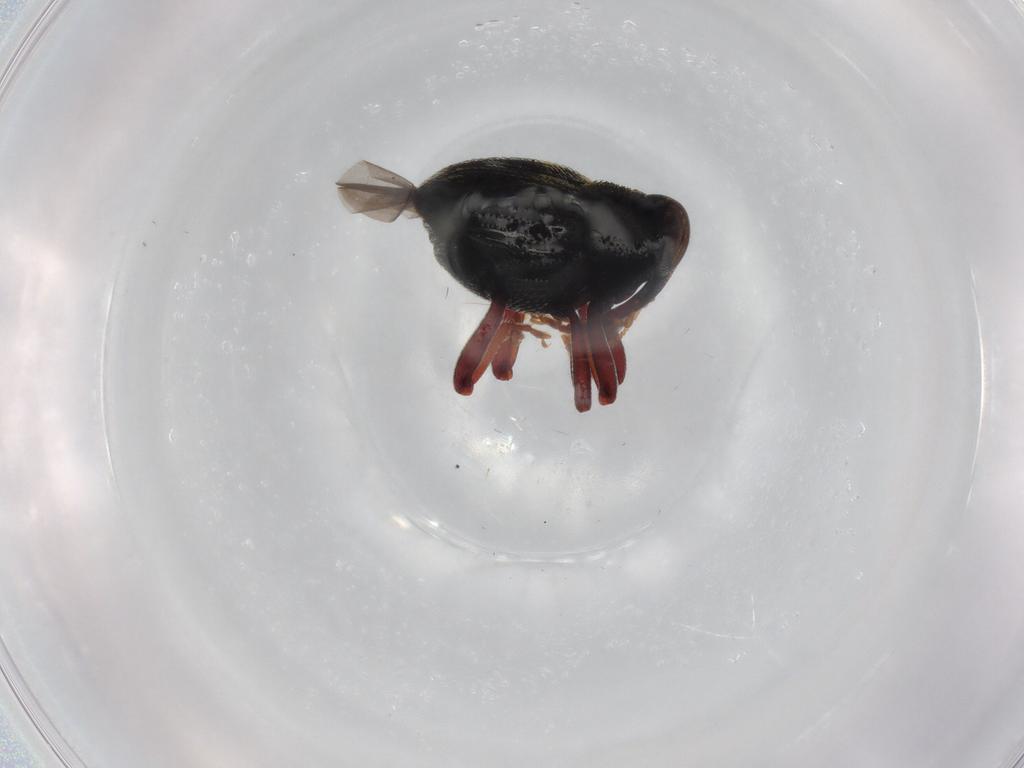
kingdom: Animalia
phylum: Arthropoda
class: Insecta
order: Coleoptera
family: Curculionidae
